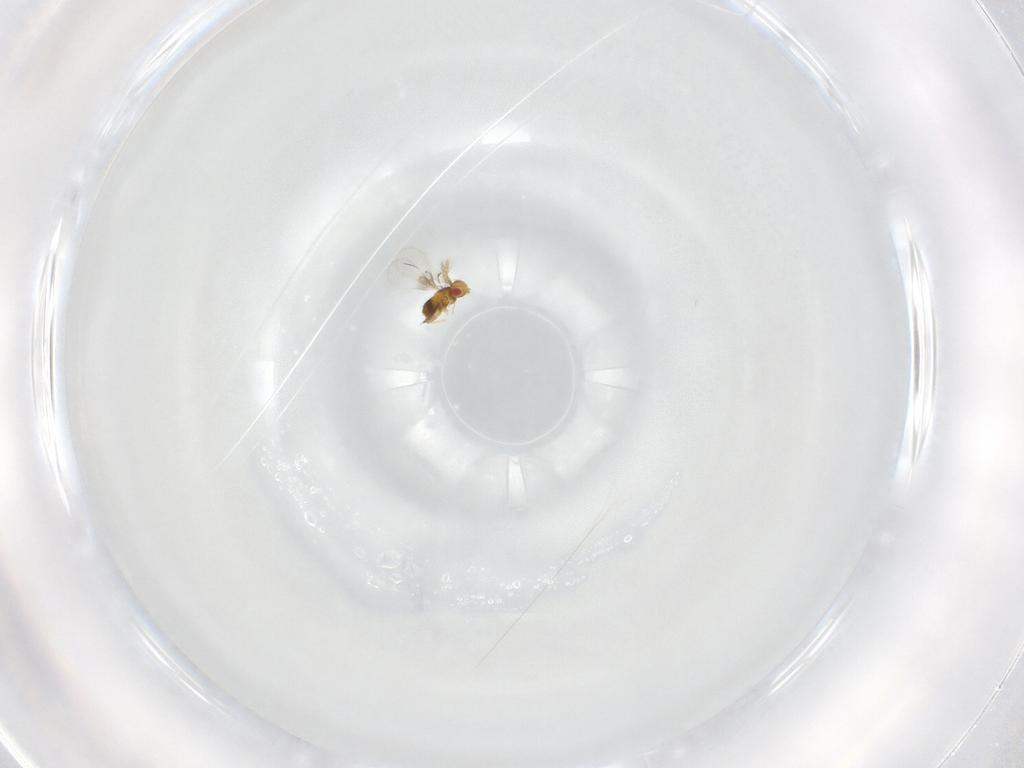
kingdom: Animalia
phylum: Arthropoda
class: Insecta
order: Hymenoptera
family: Trichogrammatidae
